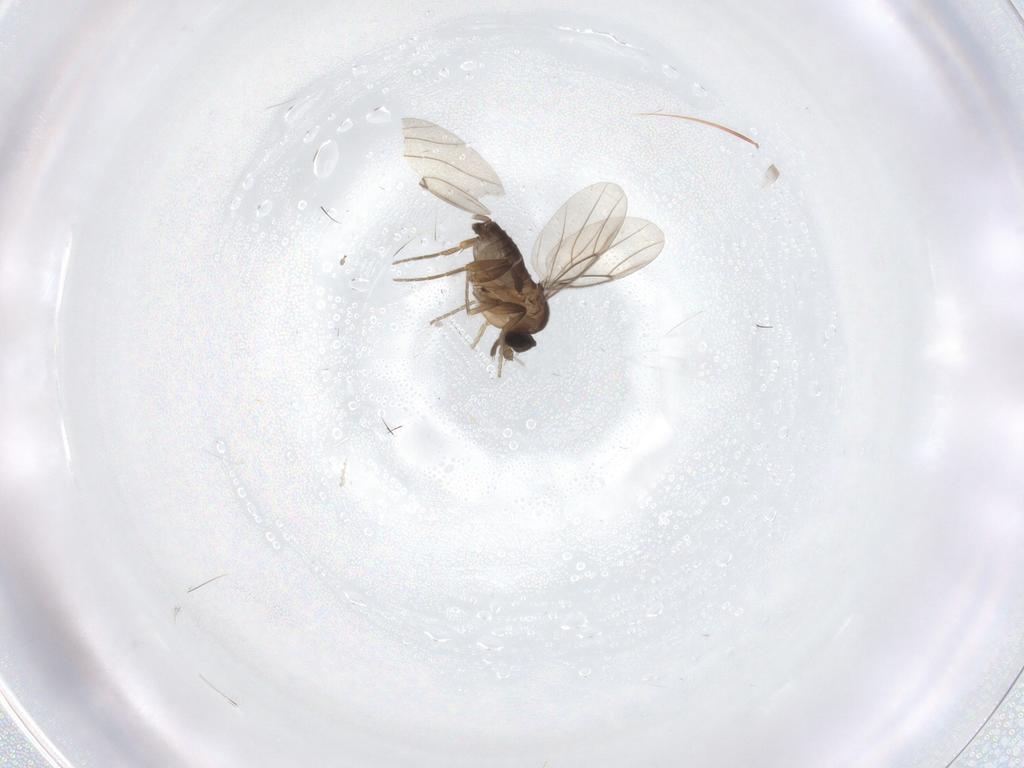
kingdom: Animalia
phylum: Arthropoda
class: Insecta
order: Diptera
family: Phoridae
